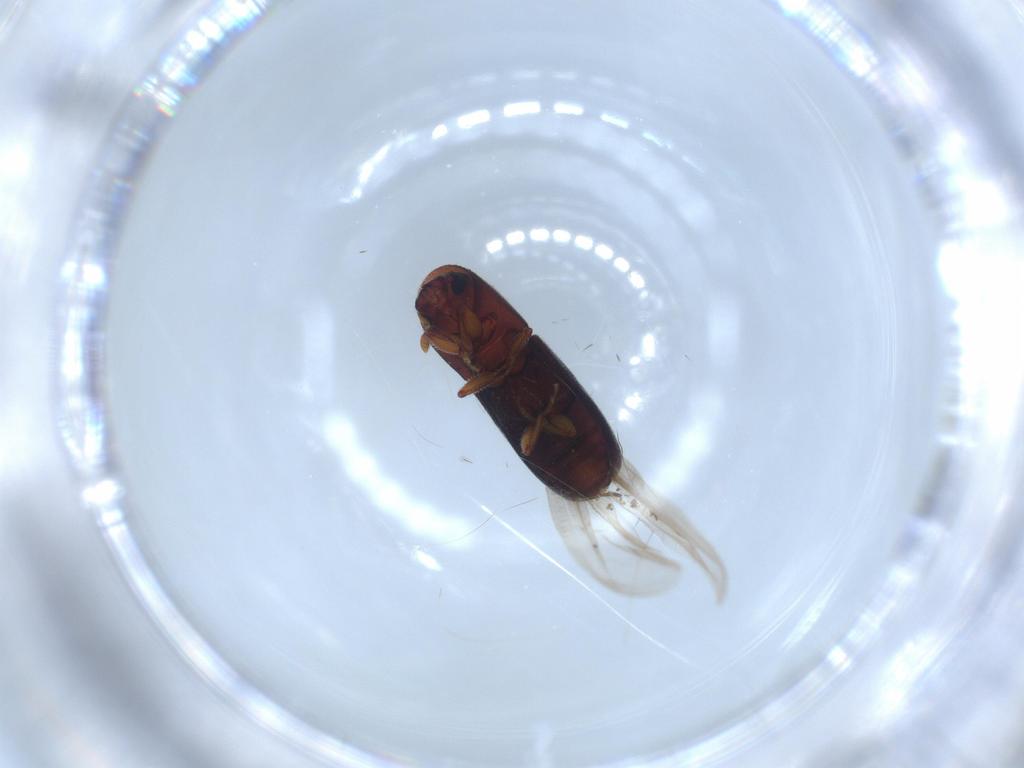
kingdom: Animalia
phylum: Arthropoda
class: Insecta
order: Coleoptera
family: Curculionidae
